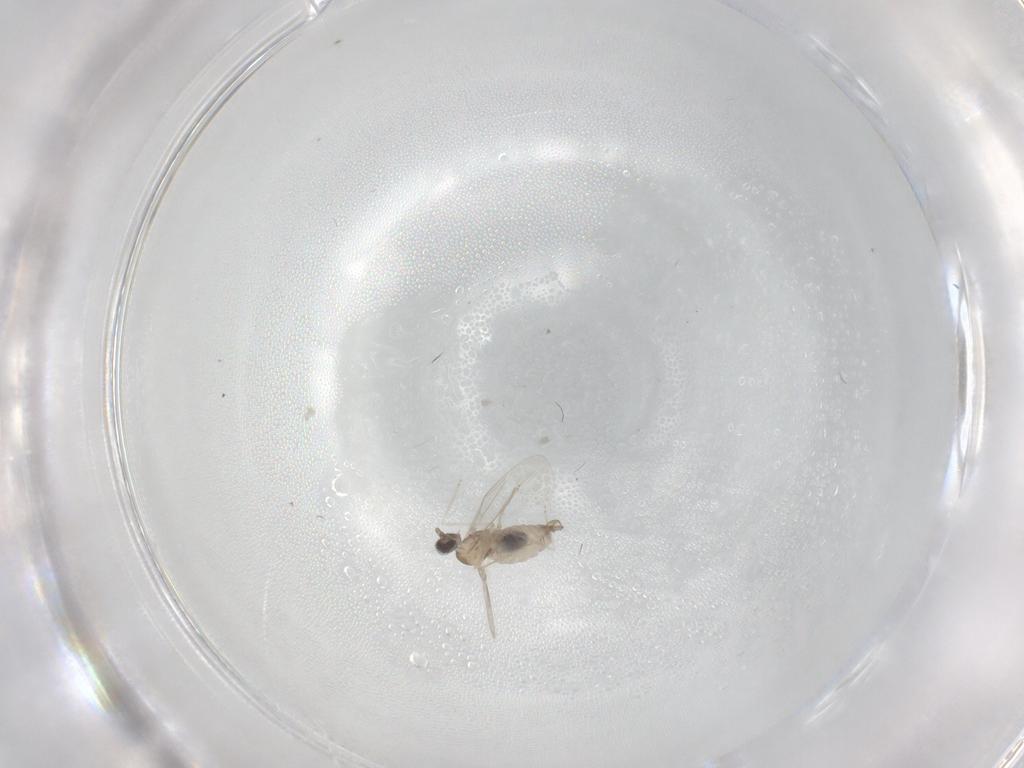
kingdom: Animalia
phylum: Arthropoda
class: Insecta
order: Diptera
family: Cecidomyiidae
